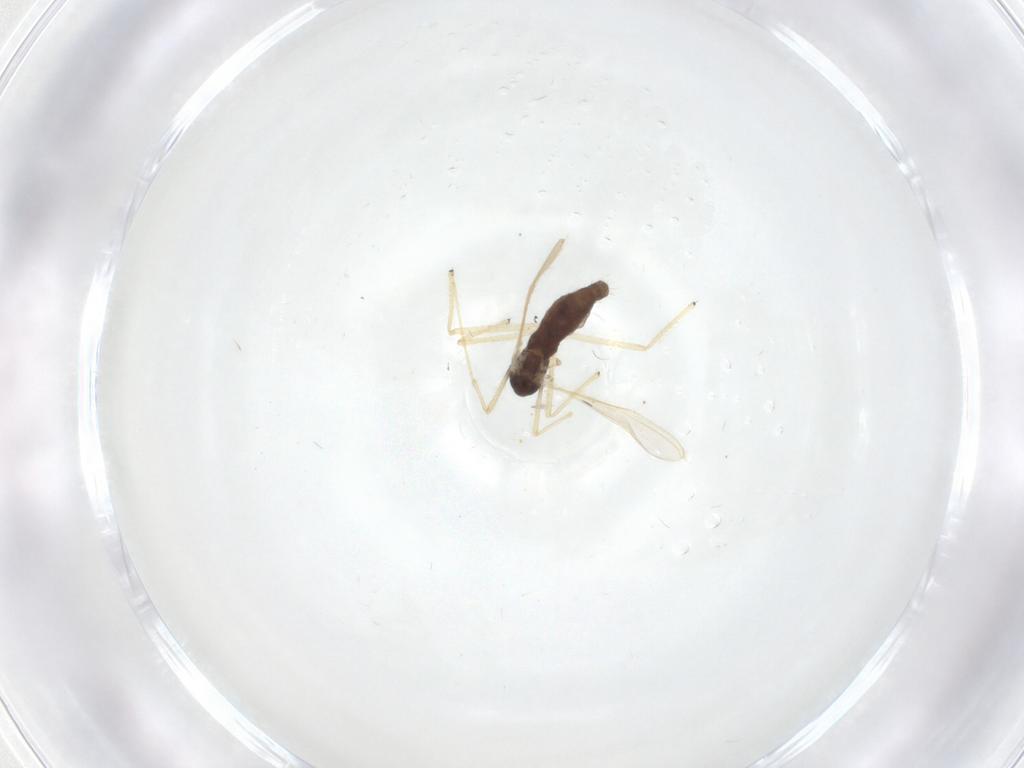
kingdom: Animalia
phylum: Arthropoda
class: Insecta
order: Diptera
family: Chironomidae
